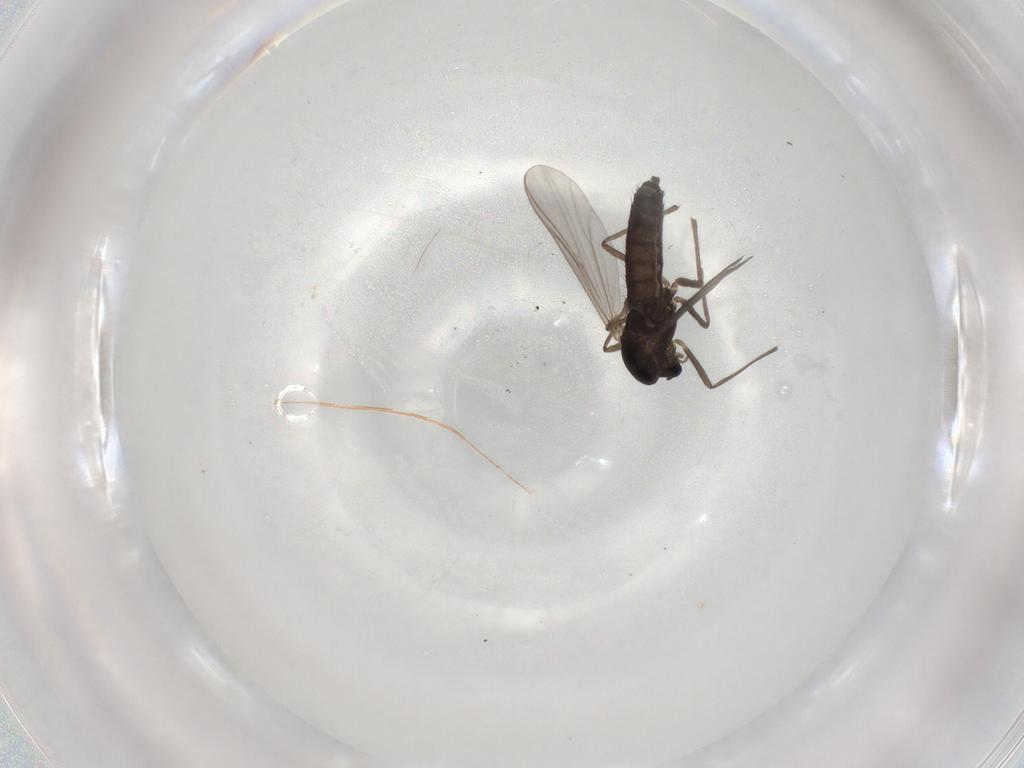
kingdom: Animalia
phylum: Arthropoda
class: Insecta
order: Diptera
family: Chironomidae
